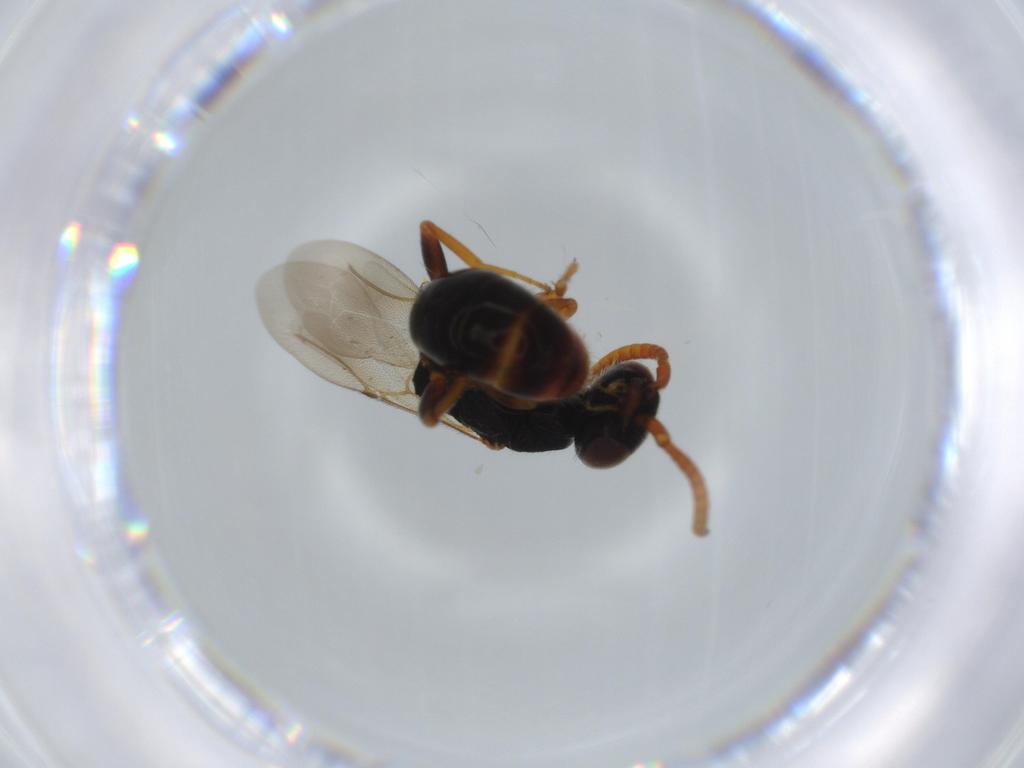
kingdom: Animalia
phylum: Arthropoda
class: Insecta
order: Hymenoptera
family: Bethylidae
